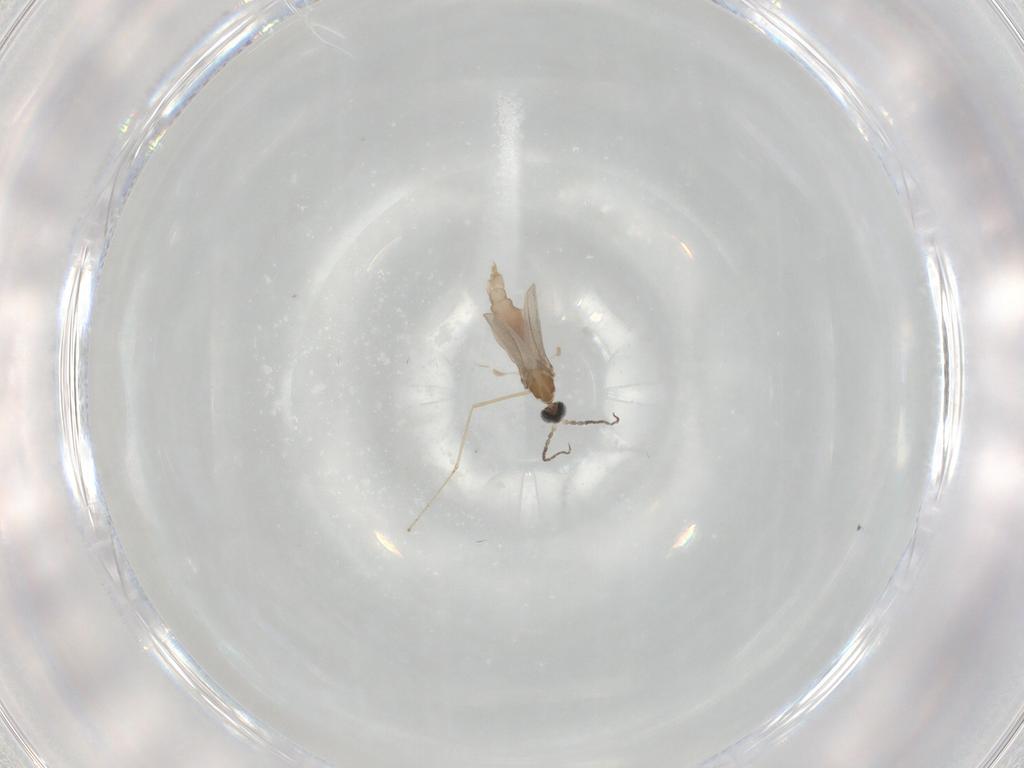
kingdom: Animalia
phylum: Arthropoda
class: Insecta
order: Diptera
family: Cecidomyiidae
